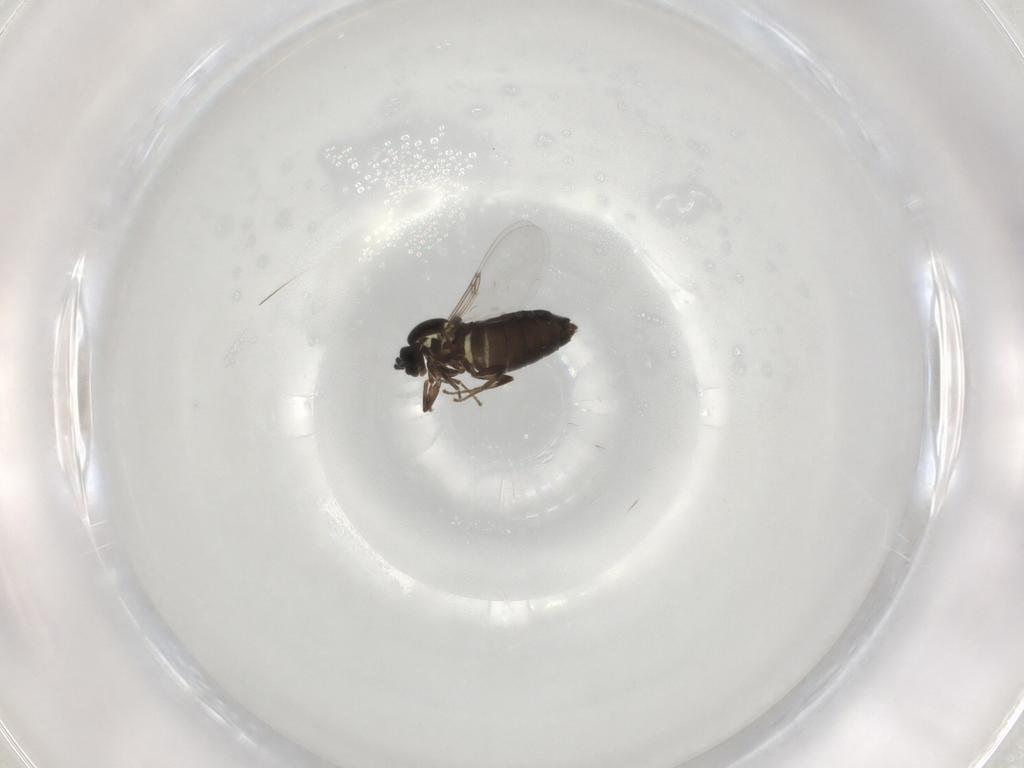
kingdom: Animalia
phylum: Arthropoda
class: Insecta
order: Diptera
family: Scatopsidae
